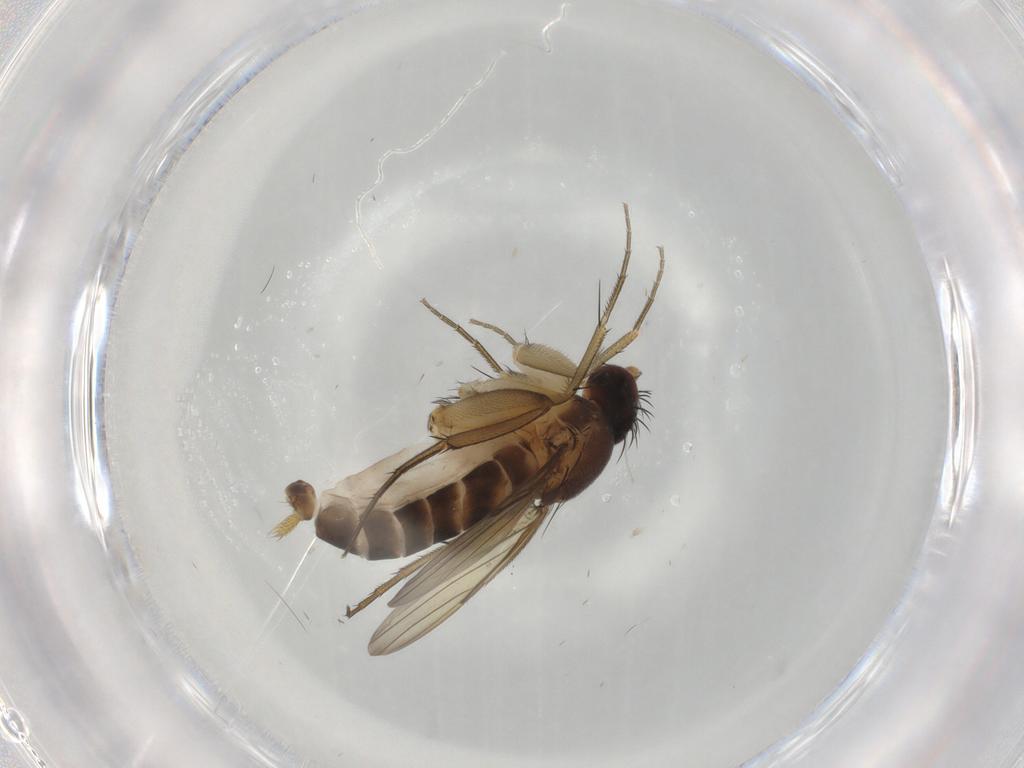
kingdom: Animalia
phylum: Arthropoda
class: Insecta
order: Diptera
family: Phoridae
